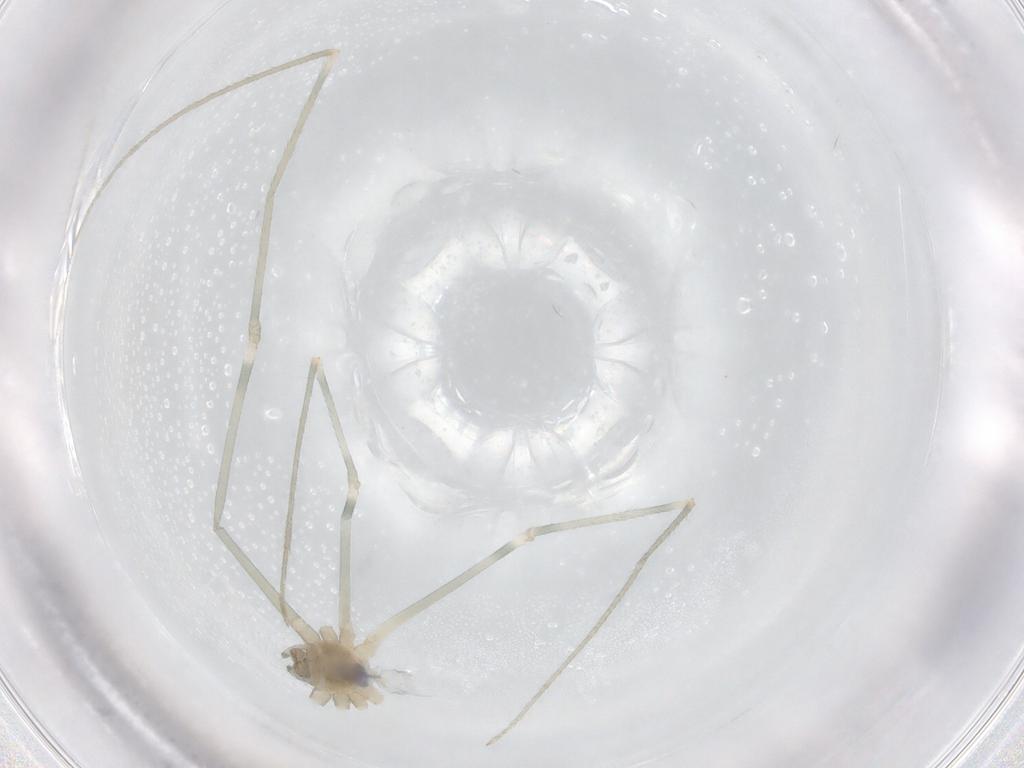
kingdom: Animalia
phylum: Arthropoda
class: Arachnida
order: Araneae
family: Pholcidae
